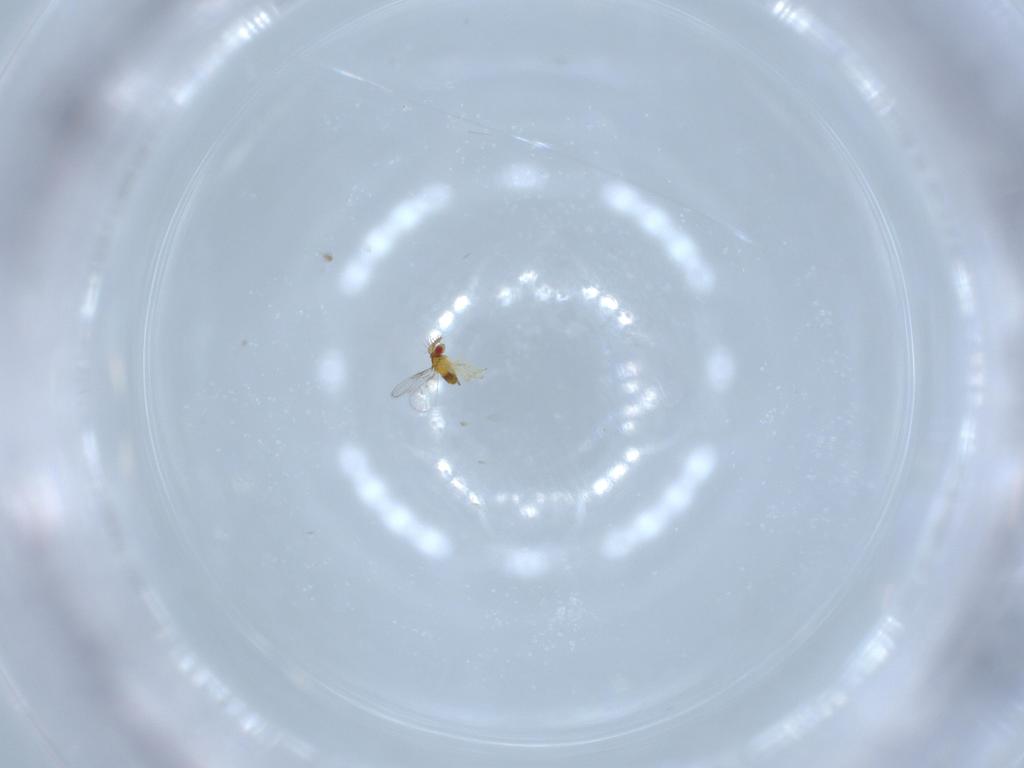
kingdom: Animalia
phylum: Arthropoda
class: Insecta
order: Hymenoptera
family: Trichogrammatidae
